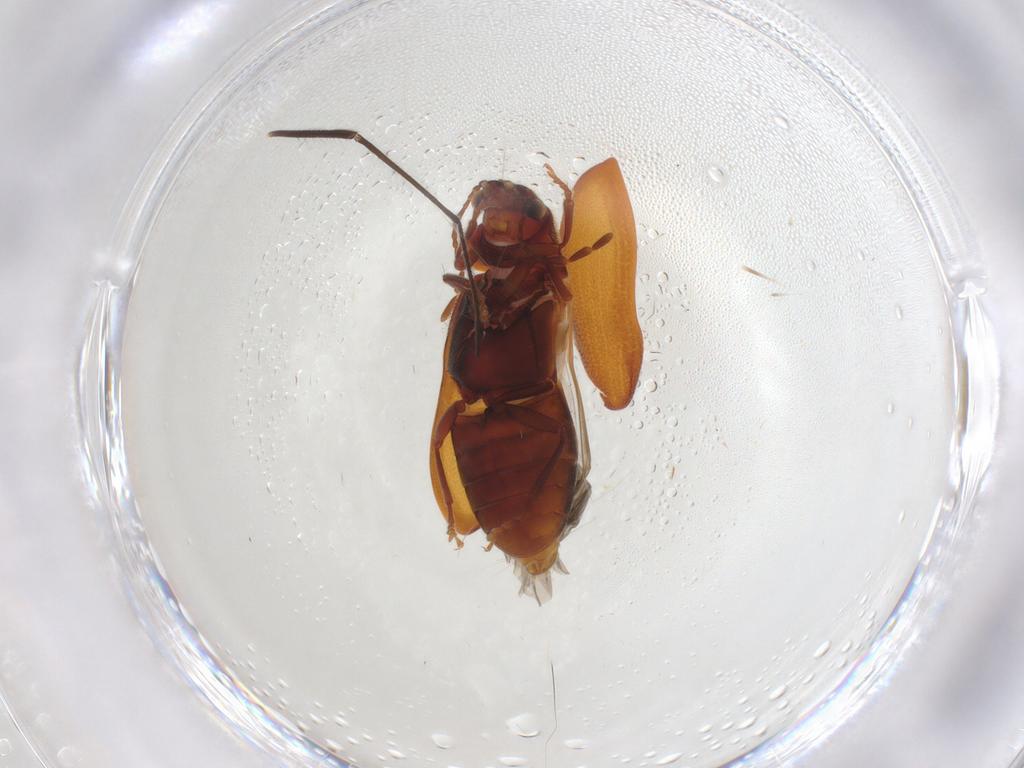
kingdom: Animalia
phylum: Arthropoda
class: Insecta
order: Coleoptera
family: Ptinidae
